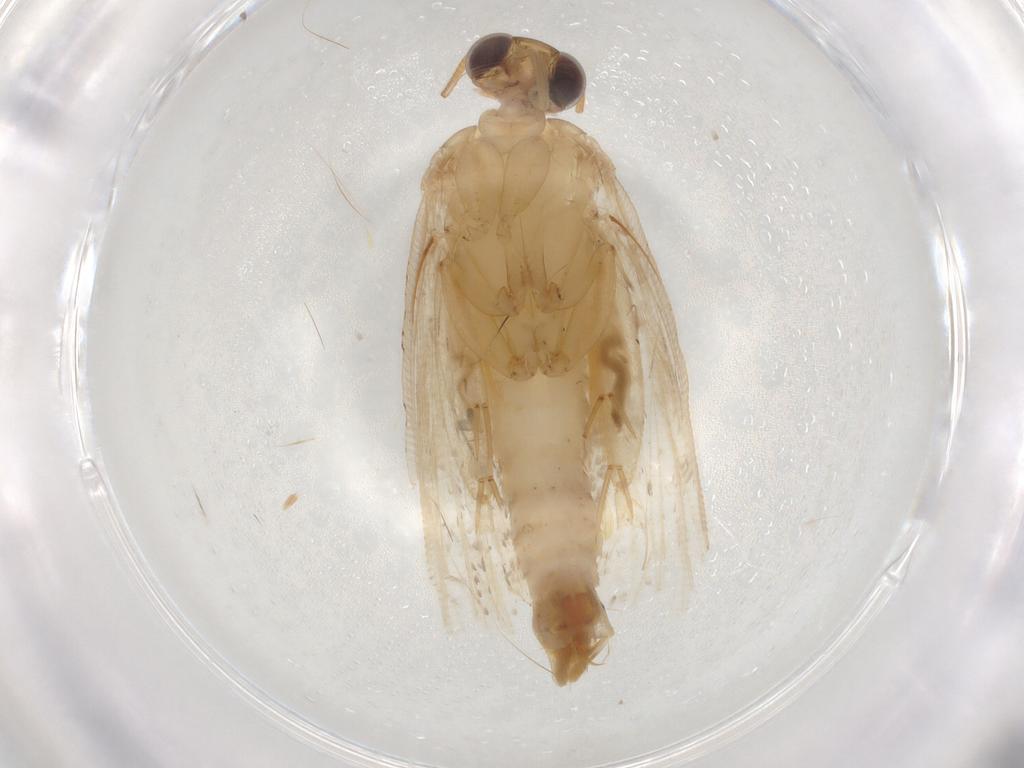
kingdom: Animalia
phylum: Arthropoda
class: Insecta
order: Lepidoptera
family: Tortricidae
